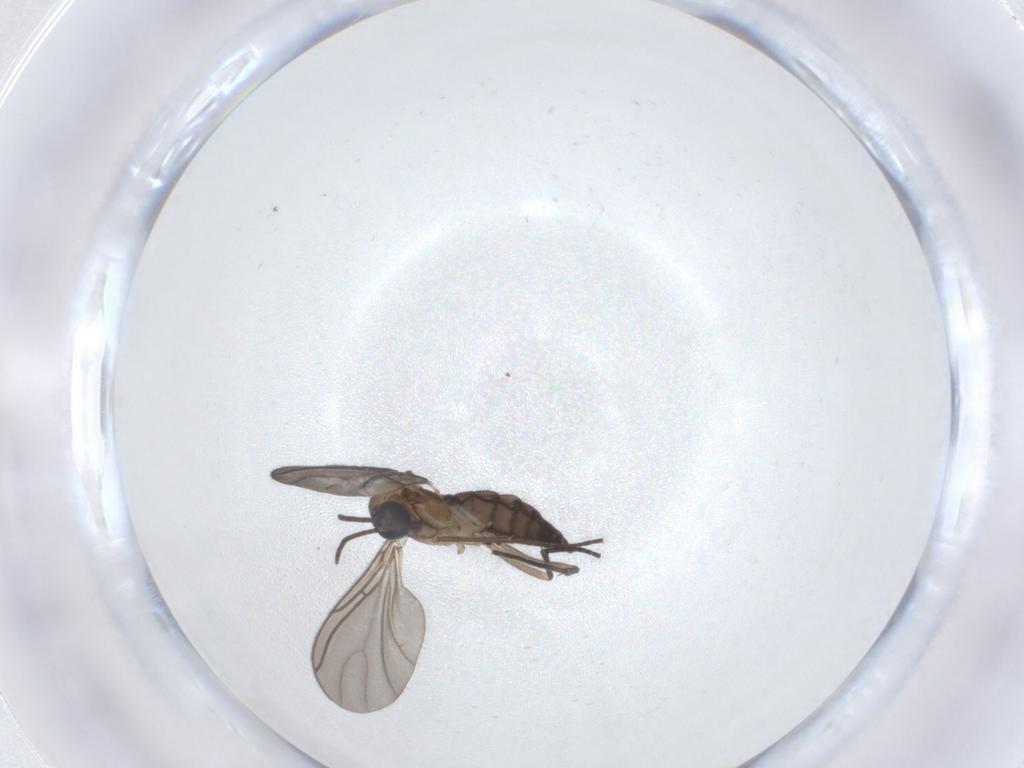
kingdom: Animalia
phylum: Arthropoda
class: Insecta
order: Diptera
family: Sciaridae
